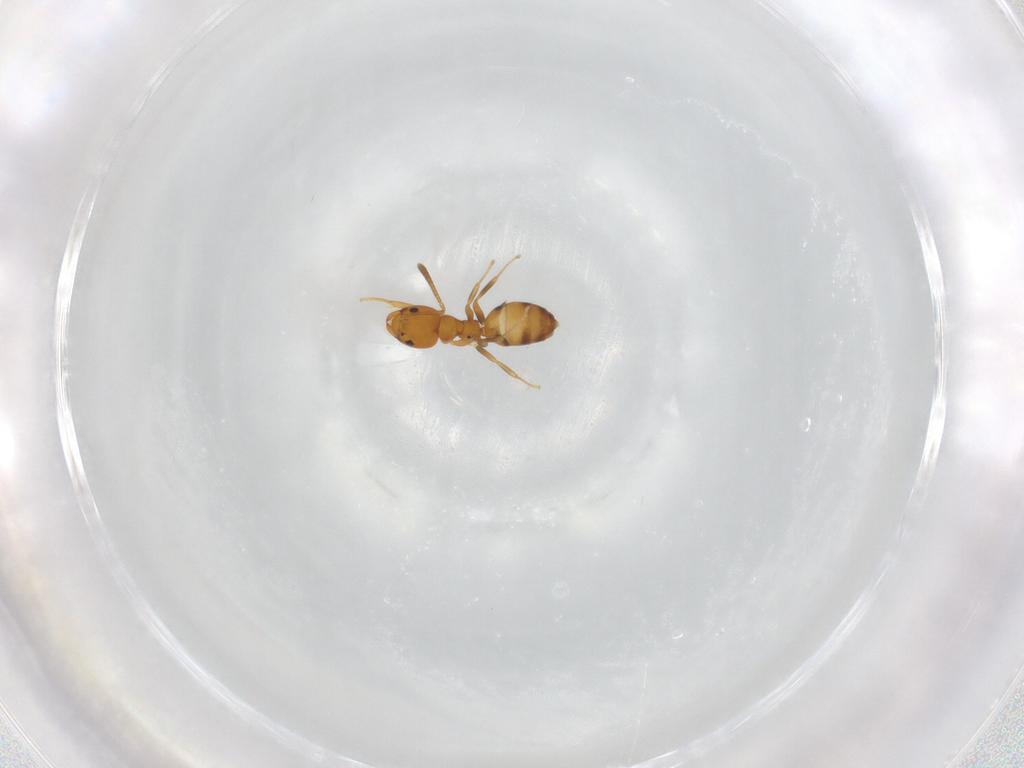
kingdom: Animalia
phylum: Arthropoda
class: Insecta
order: Hymenoptera
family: Formicidae
